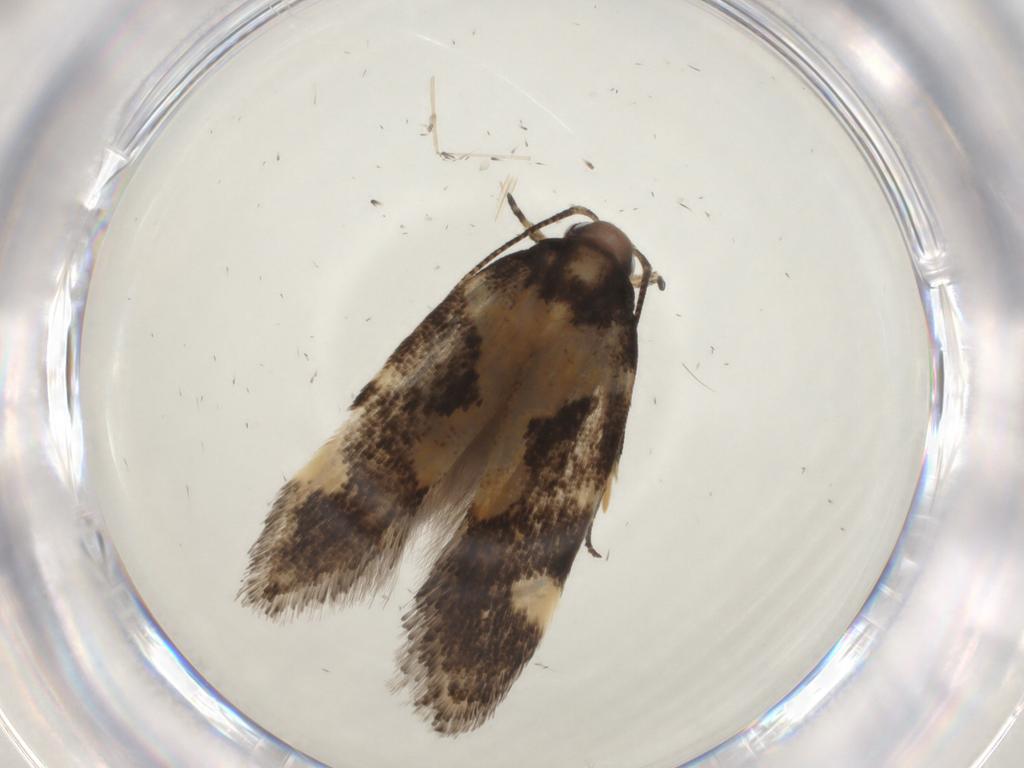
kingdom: Animalia
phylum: Arthropoda
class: Insecta
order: Lepidoptera
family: Gelechiidae
